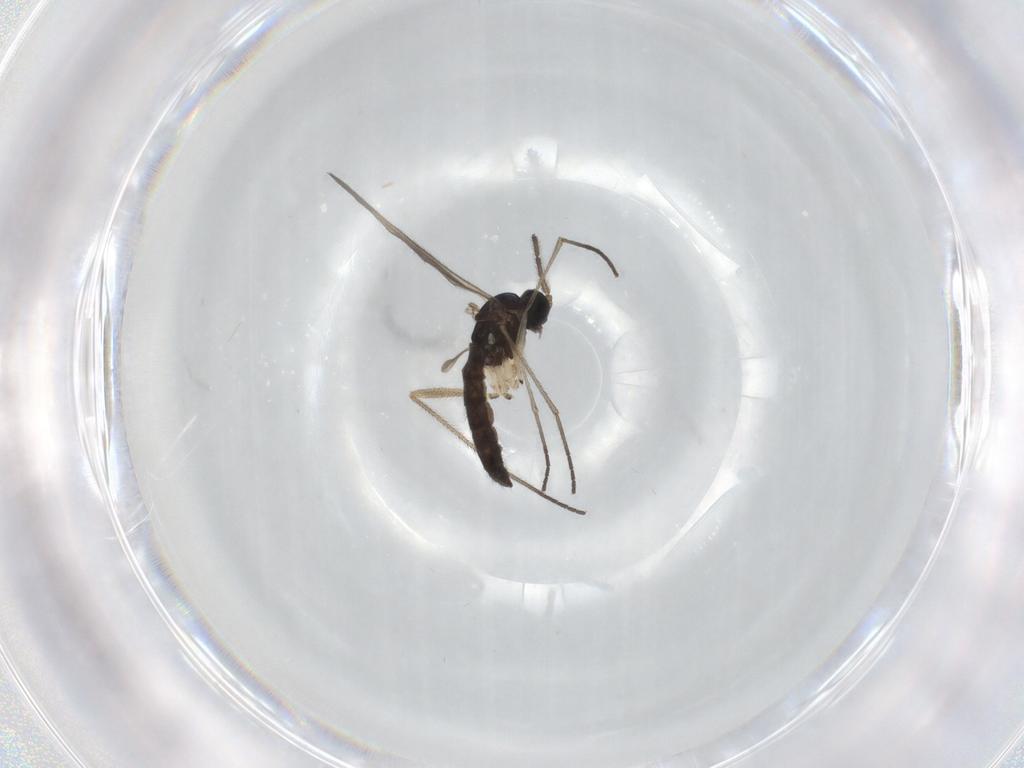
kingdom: Animalia
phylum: Arthropoda
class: Insecta
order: Diptera
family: Sciaridae
